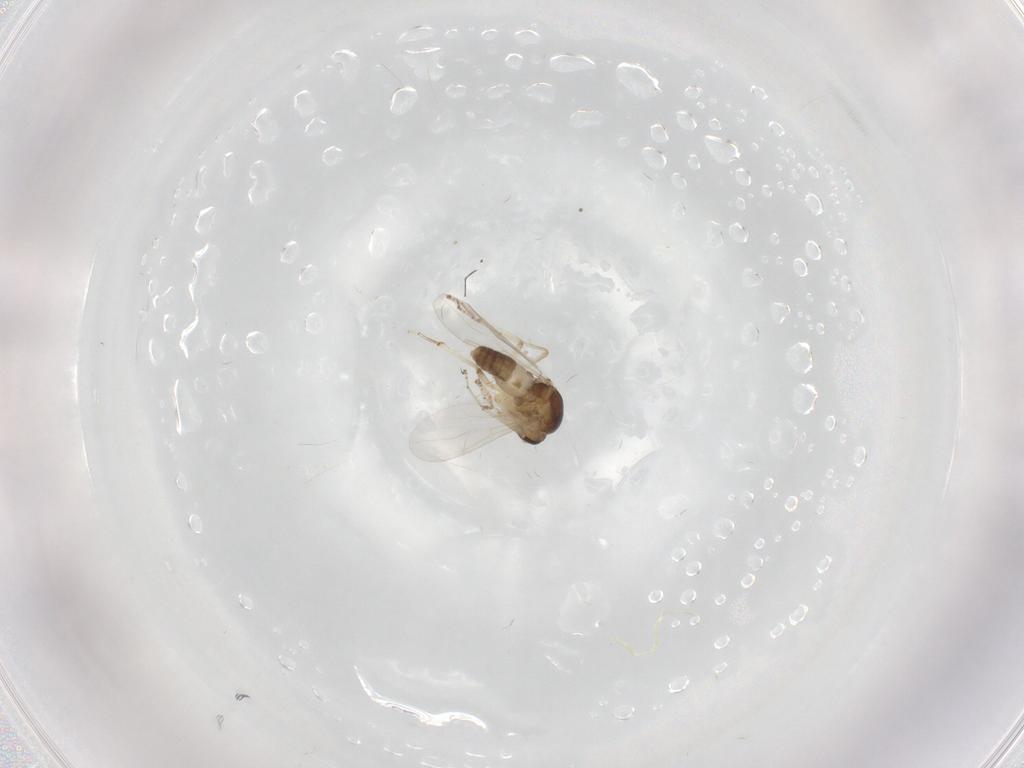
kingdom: Animalia
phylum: Arthropoda
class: Insecta
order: Diptera
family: Ceratopogonidae
